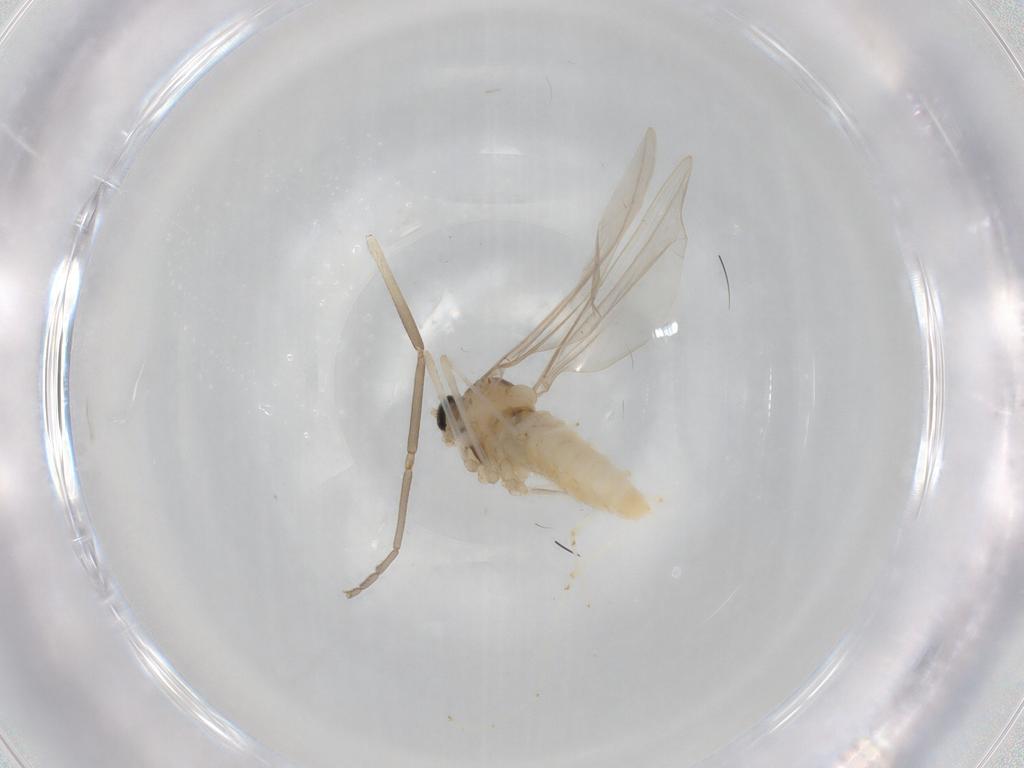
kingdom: Animalia
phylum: Arthropoda
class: Insecta
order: Diptera
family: Cecidomyiidae
